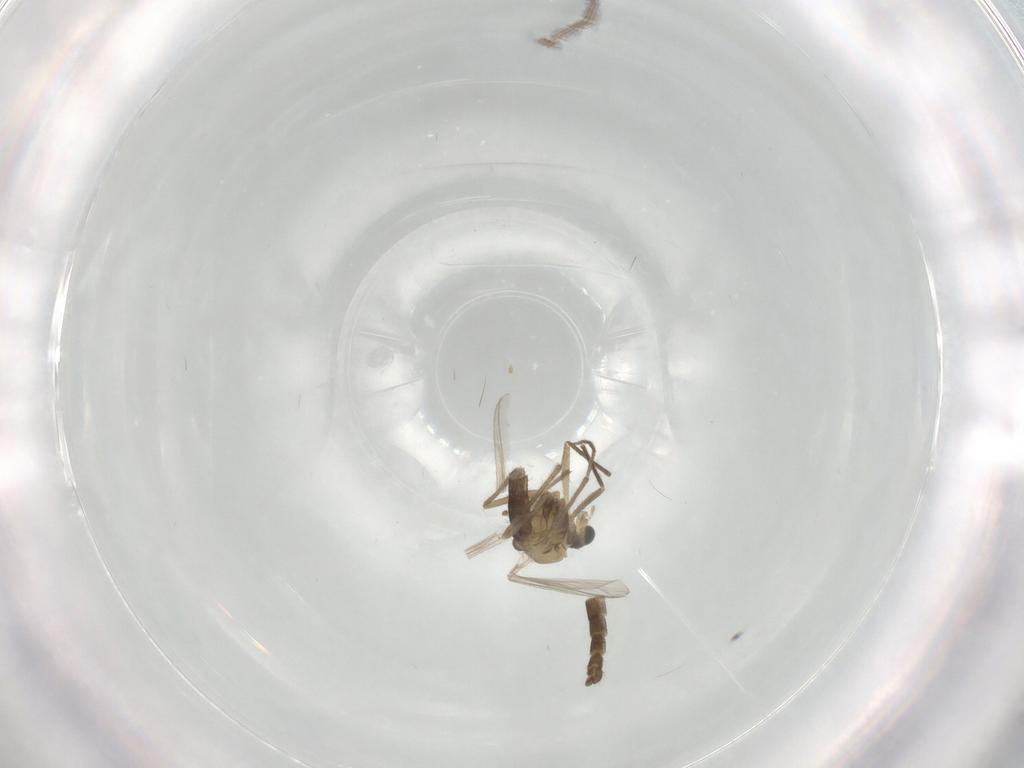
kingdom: Animalia
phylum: Arthropoda
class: Insecta
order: Diptera
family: Chironomidae
